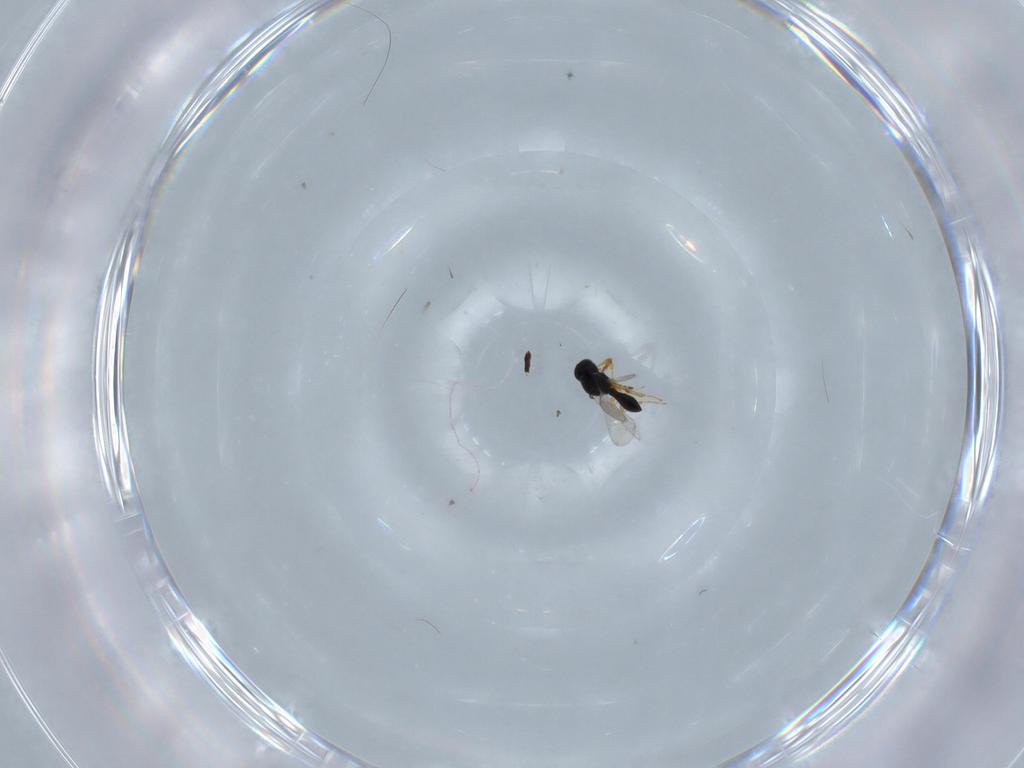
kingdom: Animalia
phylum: Arthropoda
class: Insecta
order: Hymenoptera
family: Platygastridae
